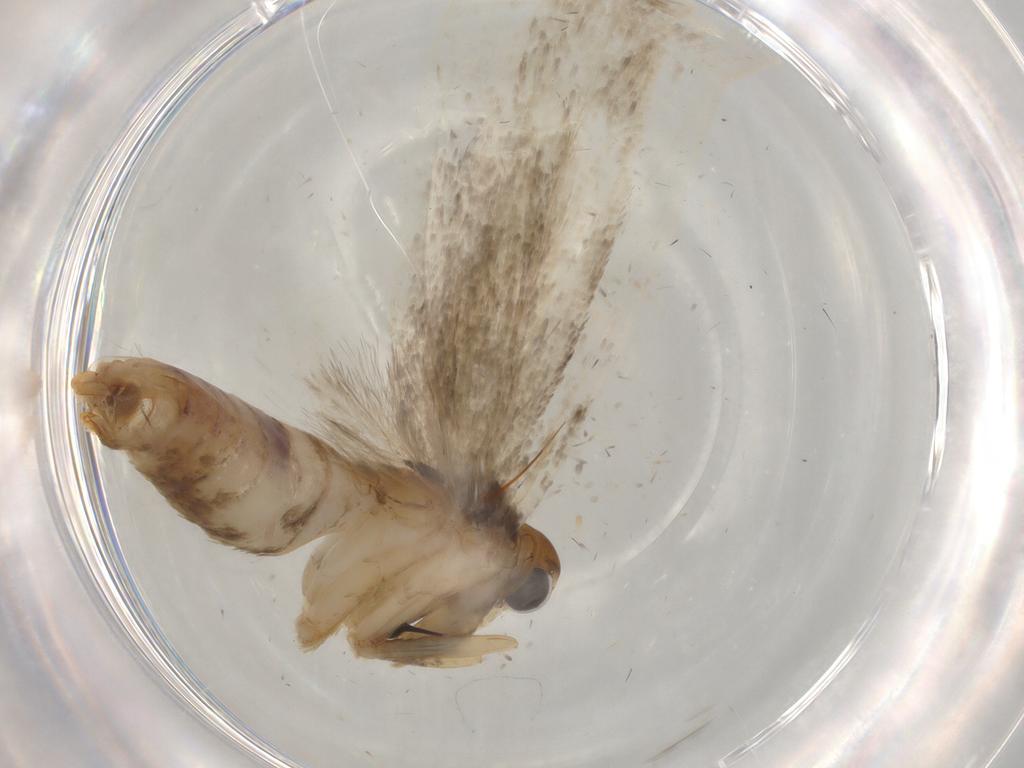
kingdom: Animalia
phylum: Arthropoda
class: Insecta
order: Lepidoptera
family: Gelechiidae
